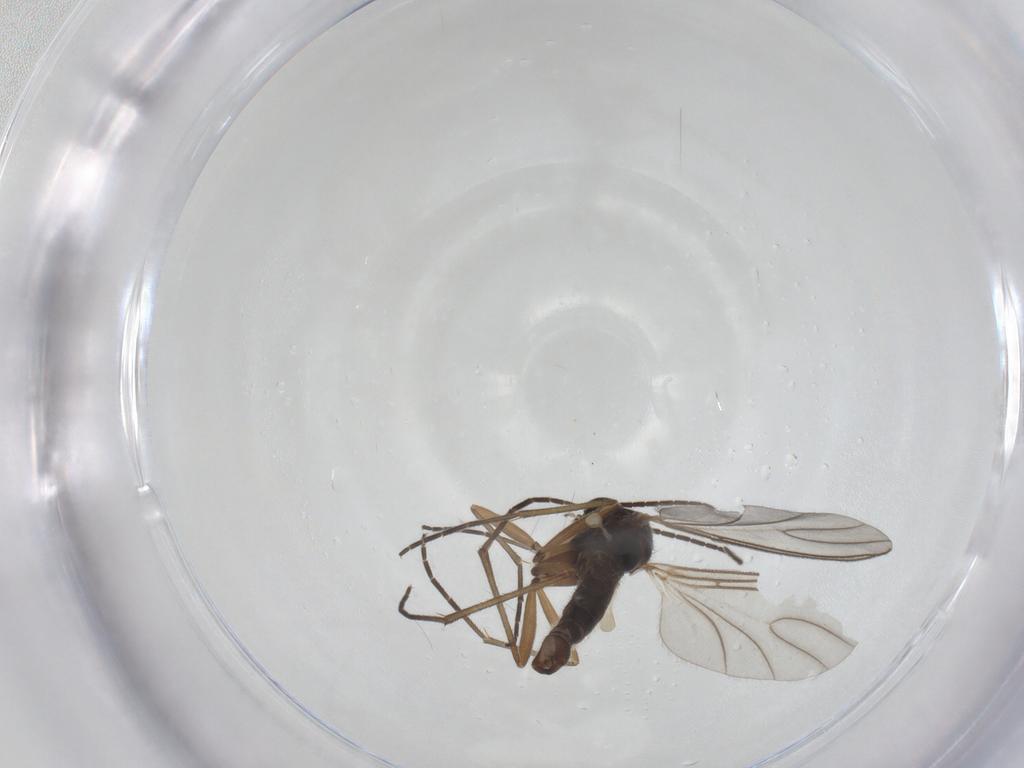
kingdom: Animalia
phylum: Arthropoda
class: Insecta
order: Diptera
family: Sciaridae
